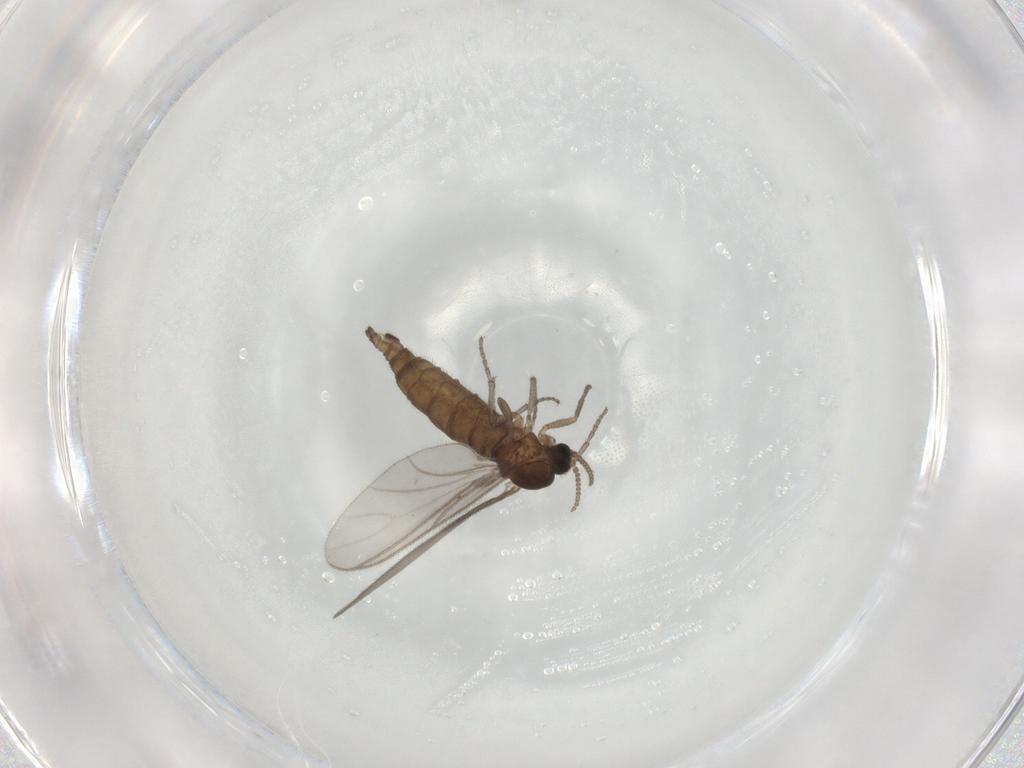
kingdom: Animalia
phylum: Arthropoda
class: Insecta
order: Diptera
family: Sciaridae
